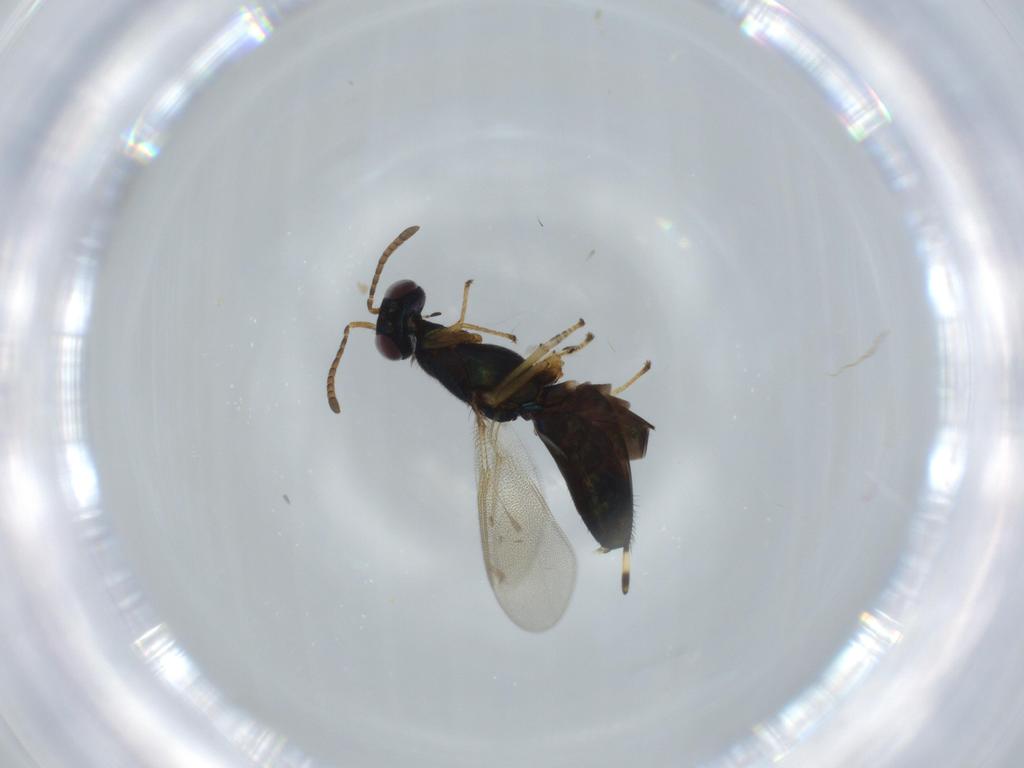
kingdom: Animalia
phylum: Arthropoda
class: Insecta
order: Hymenoptera
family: Eupelmidae
